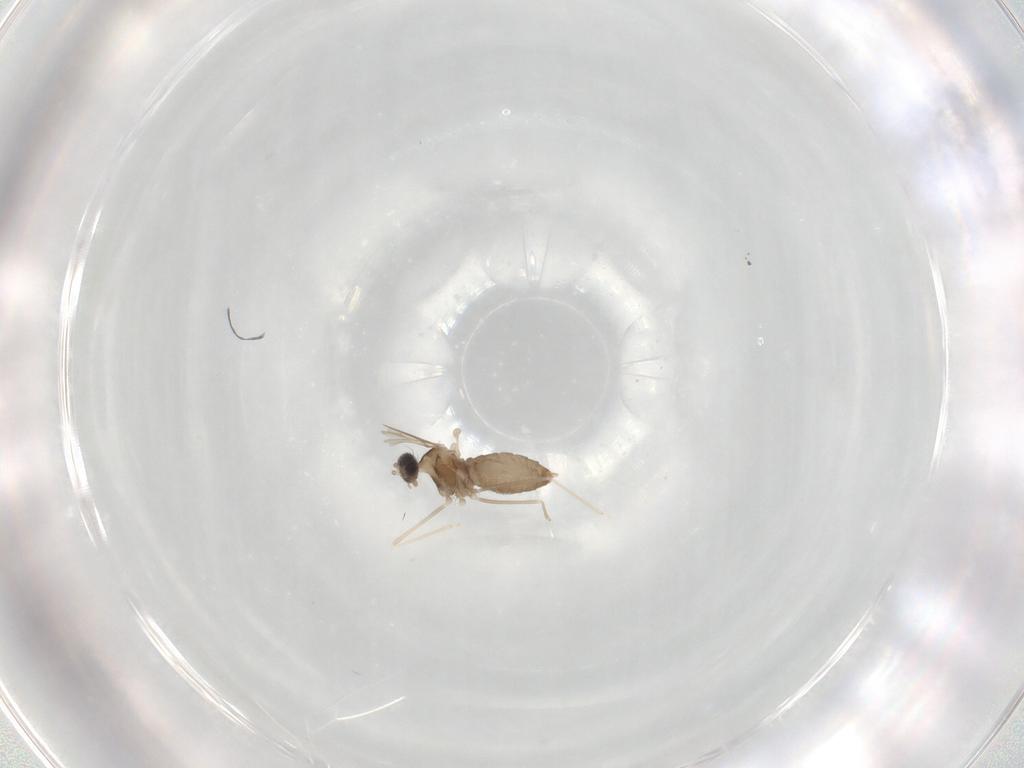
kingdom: Animalia
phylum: Arthropoda
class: Insecta
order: Diptera
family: Cecidomyiidae
